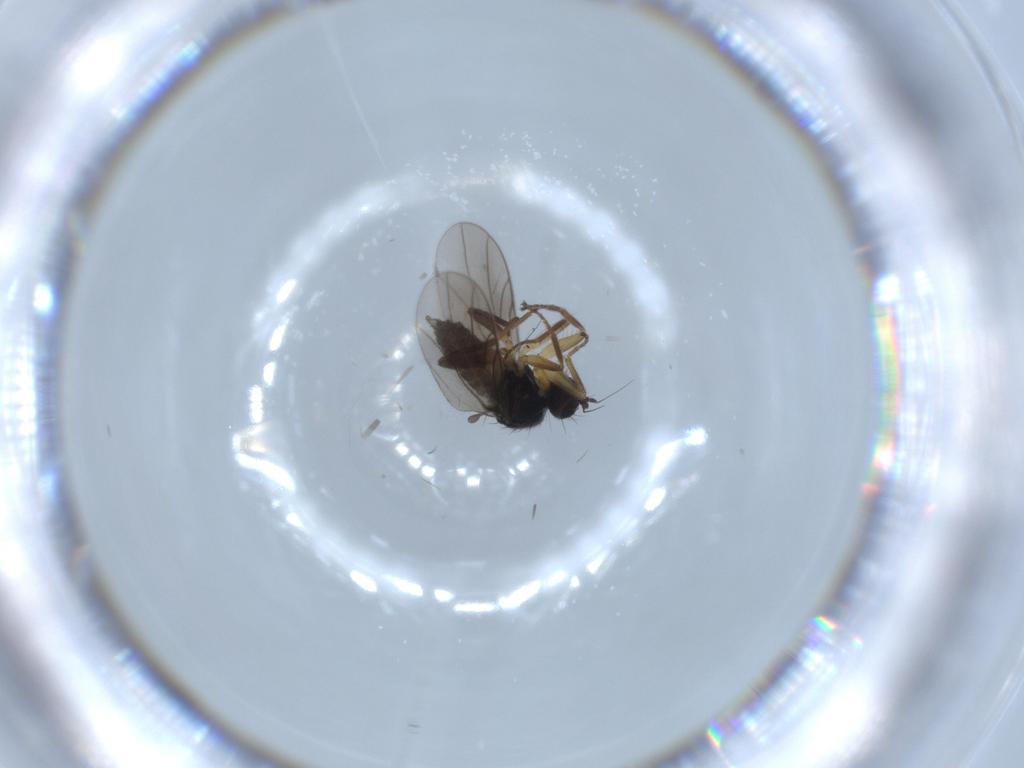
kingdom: Animalia
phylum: Arthropoda
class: Insecta
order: Diptera
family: Hybotidae
